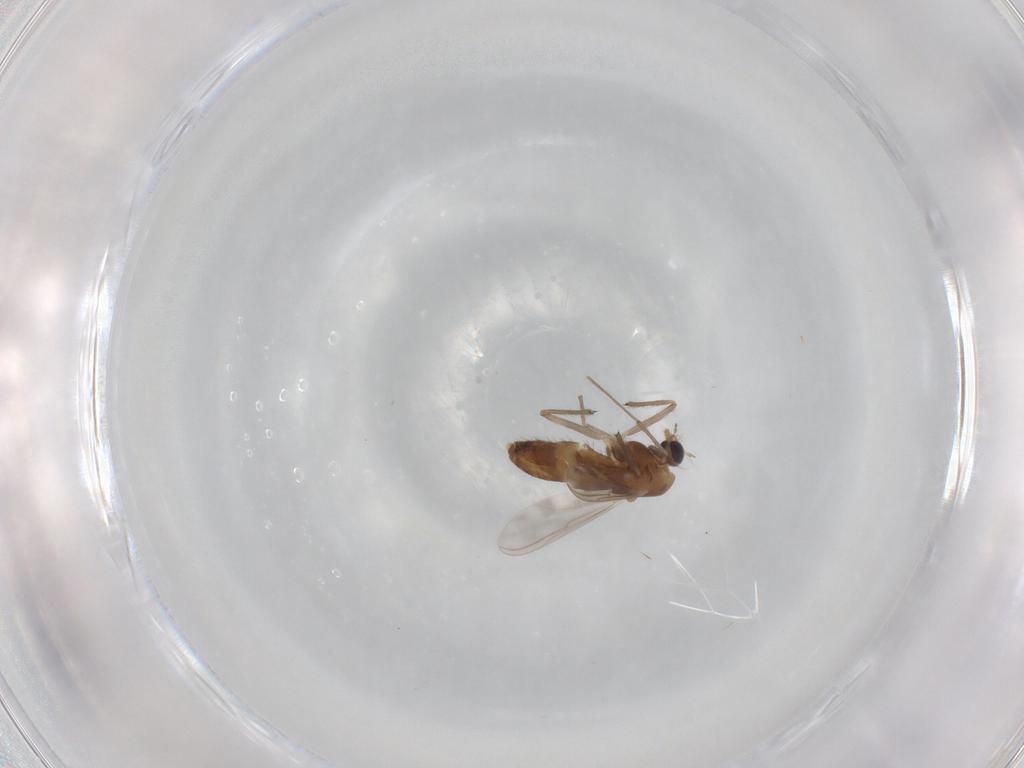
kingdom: Animalia
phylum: Arthropoda
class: Insecta
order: Diptera
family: Chironomidae
